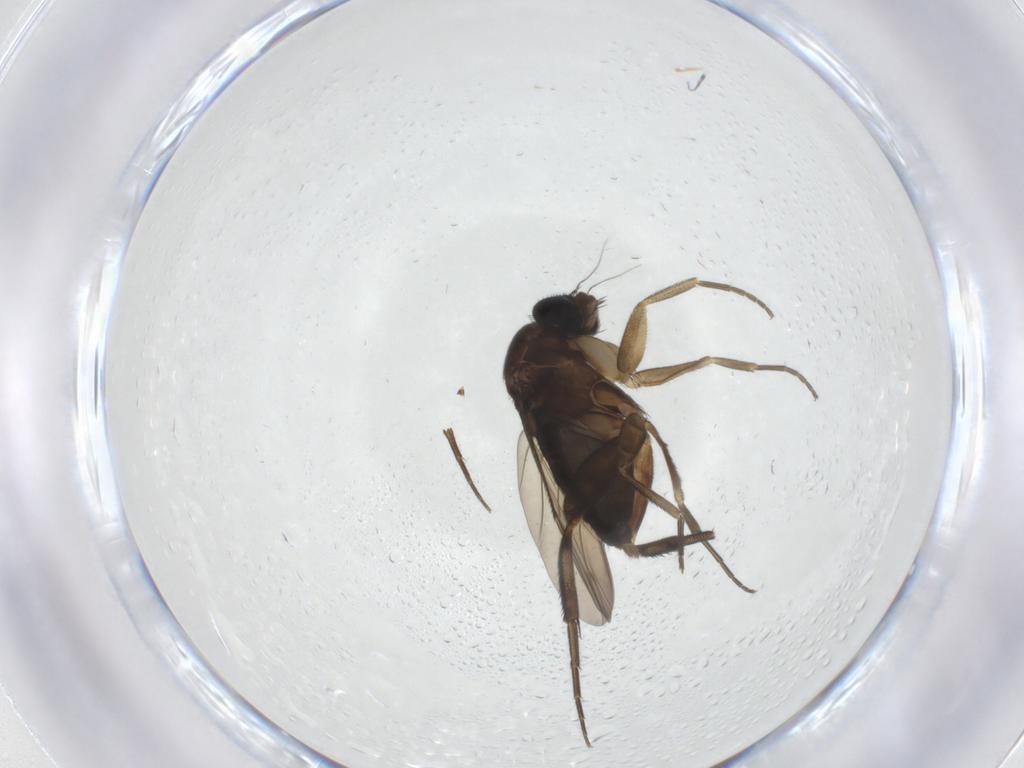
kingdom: Animalia
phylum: Arthropoda
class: Insecta
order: Diptera
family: Phoridae
